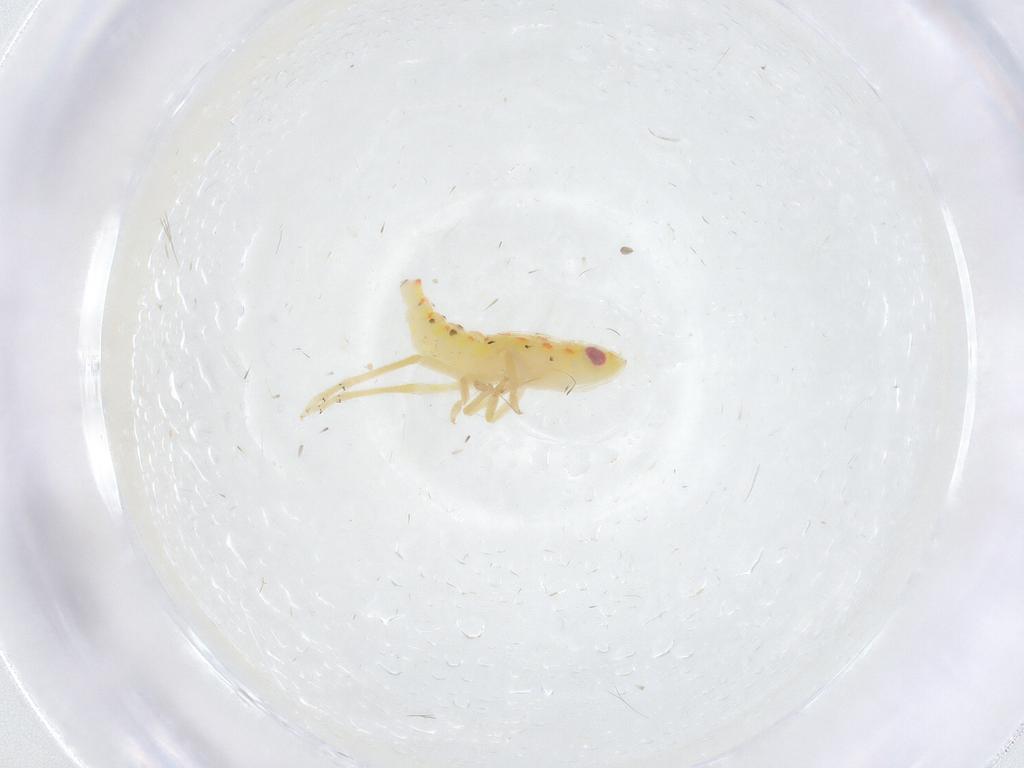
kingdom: Animalia
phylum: Arthropoda
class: Insecta
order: Hemiptera
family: Tropiduchidae
